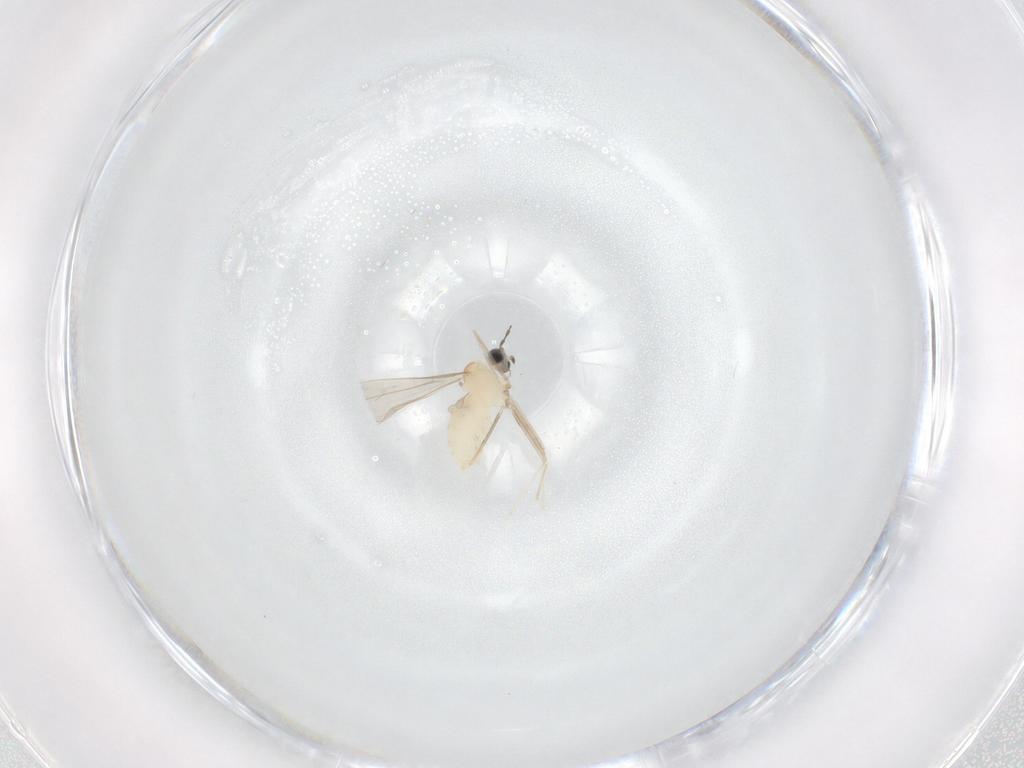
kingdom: Animalia
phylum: Arthropoda
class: Insecta
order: Diptera
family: Cecidomyiidae
